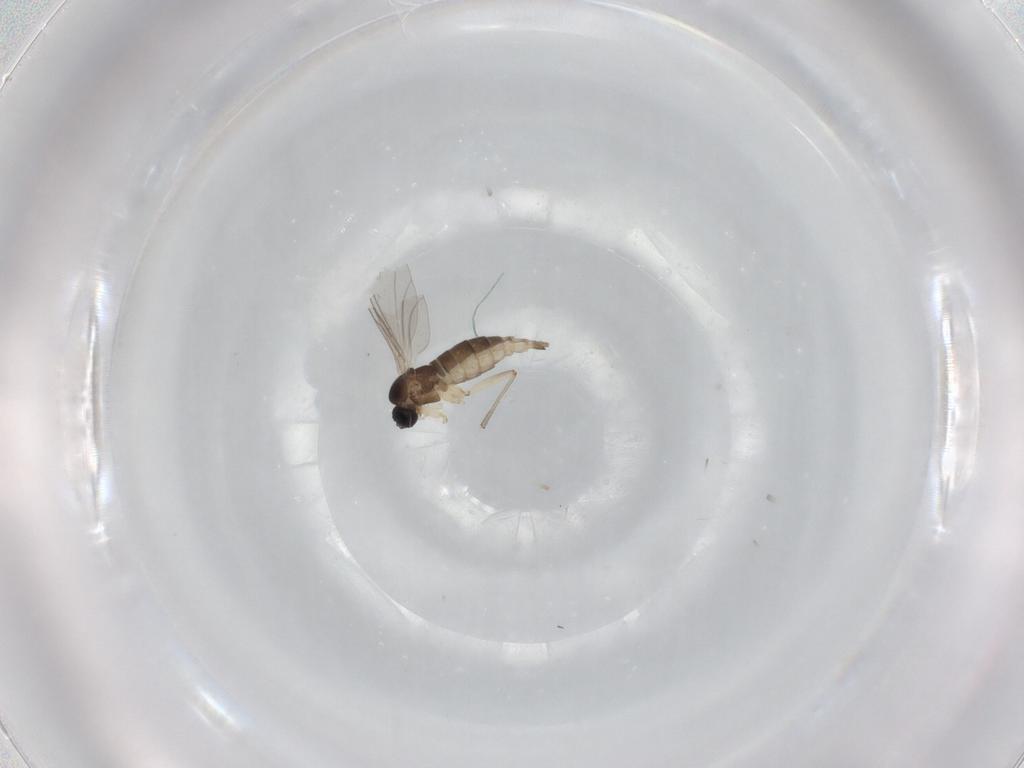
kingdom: Animalia
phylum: Arthropoda
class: Insecta
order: Diptera
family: Sciaridae
